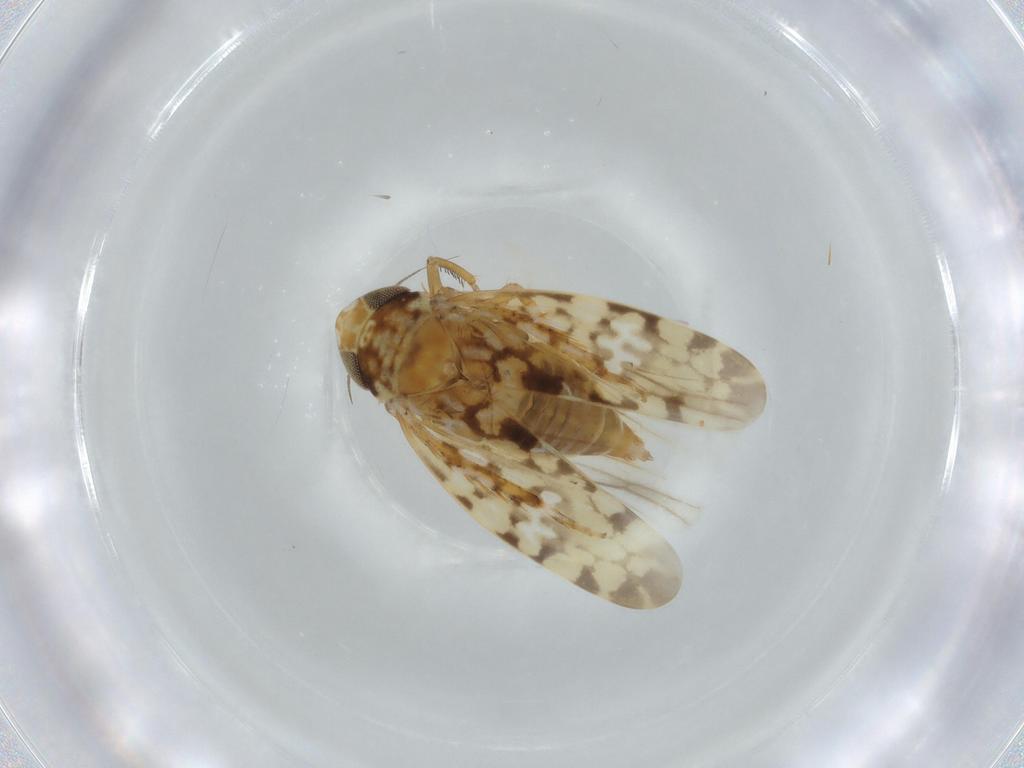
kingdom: Animalia
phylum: Arthropoda
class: Insecta
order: Hemiptera
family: Cicadellidae
